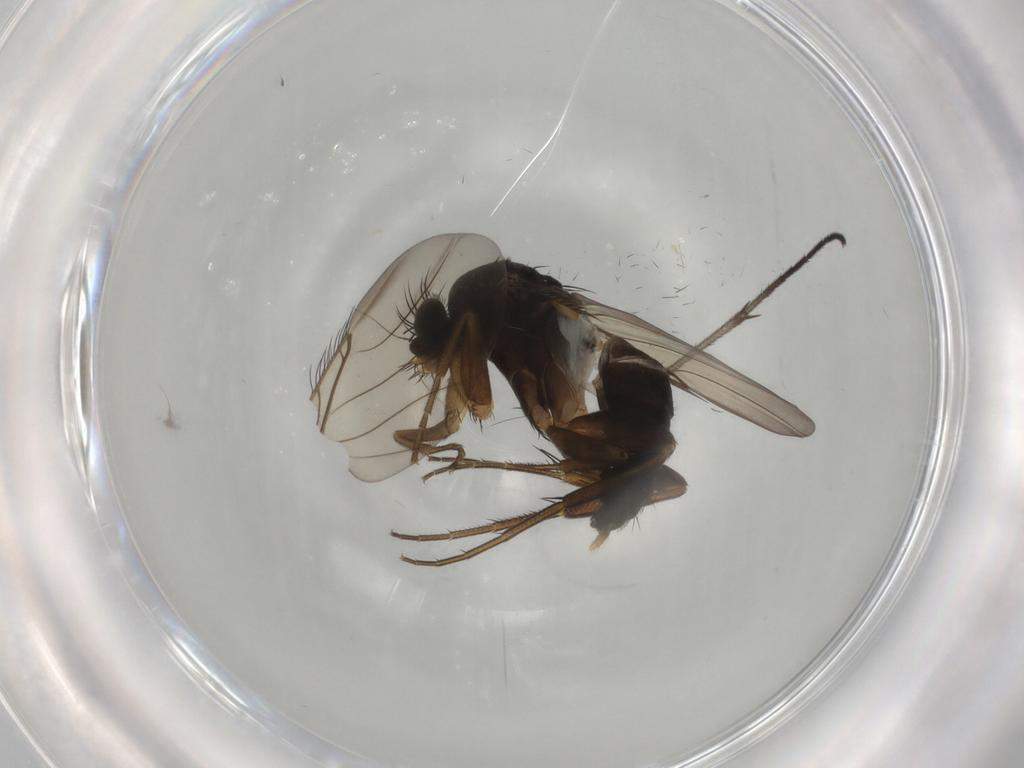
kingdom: Animalia
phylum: Arthropoda
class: Insecta
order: Diptera
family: Phoridae
